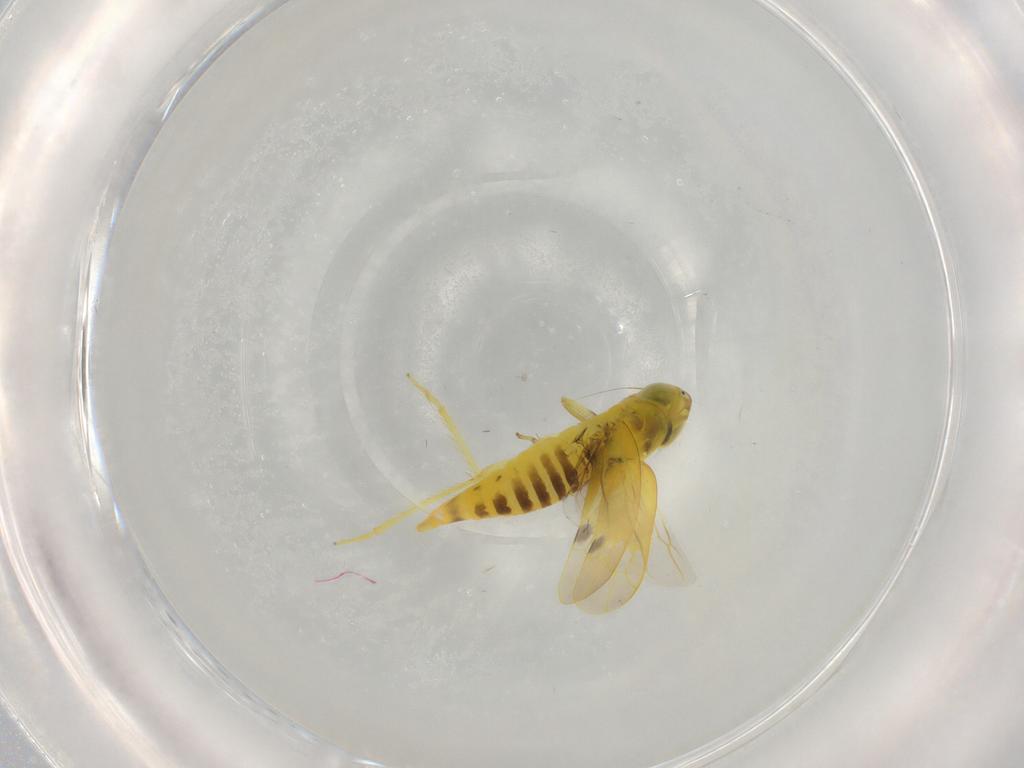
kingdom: Animalia
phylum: Arthropoda
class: Insecta
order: Hemiptera
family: Cicadellidae
